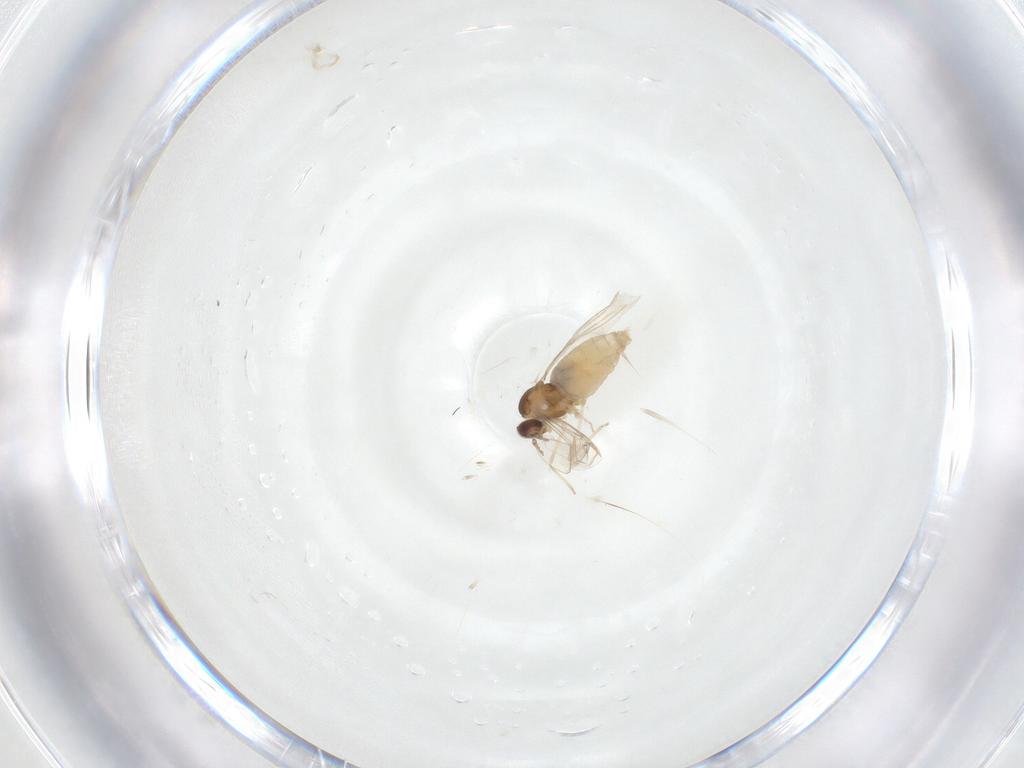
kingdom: Animalia
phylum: Arthropoda
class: Insecta
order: Diptera
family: Cecidomyiidae
